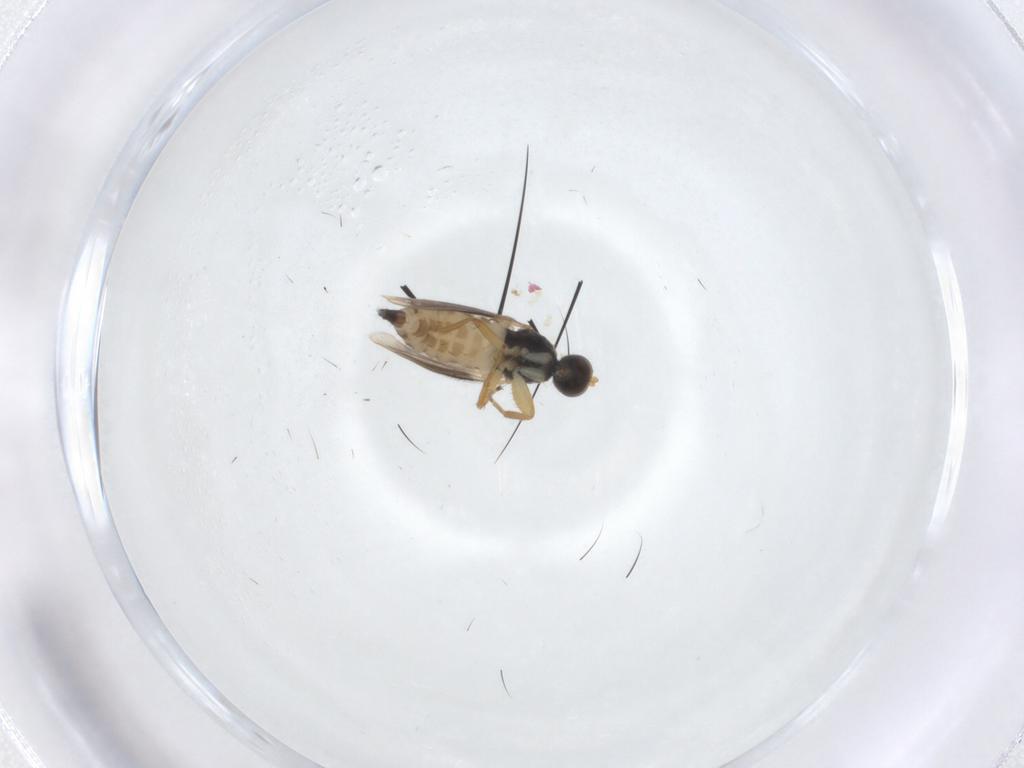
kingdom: Animalia
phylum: Arthropoda
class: Insecta
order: Diptera
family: Hybotidae
